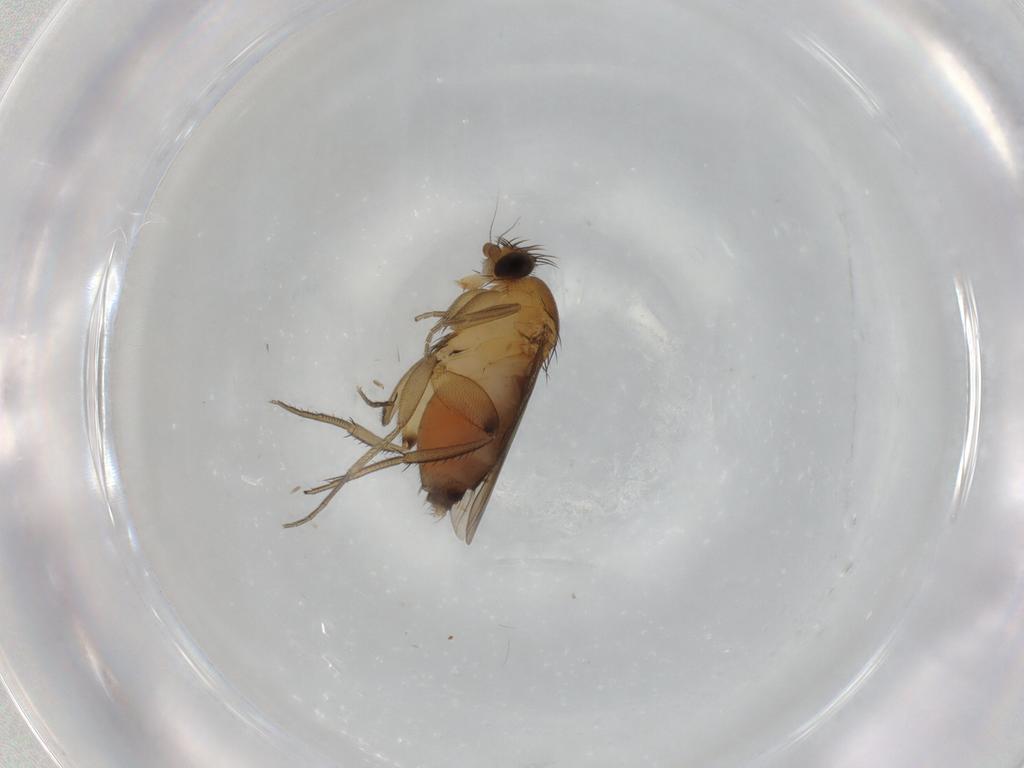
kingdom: Animalia
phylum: Arthropoda
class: Insecta
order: Diptera
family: Phoridae
